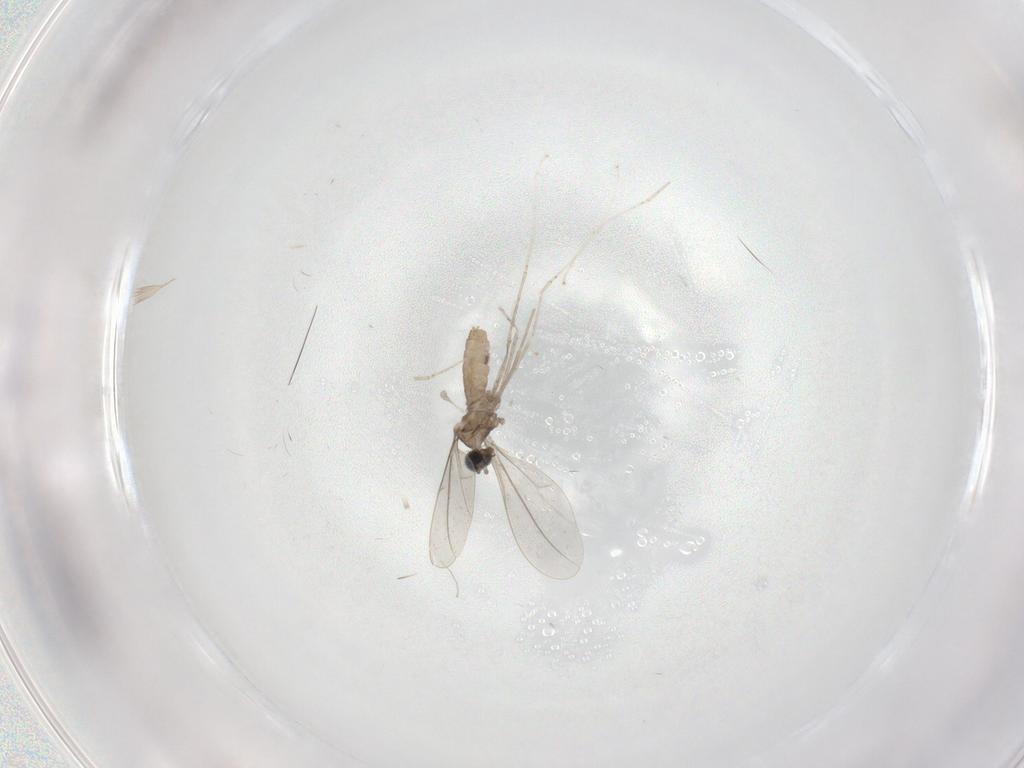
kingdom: Animalia
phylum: Arthropoda
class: Insecta
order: Diptera
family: Cecidomyiidae
